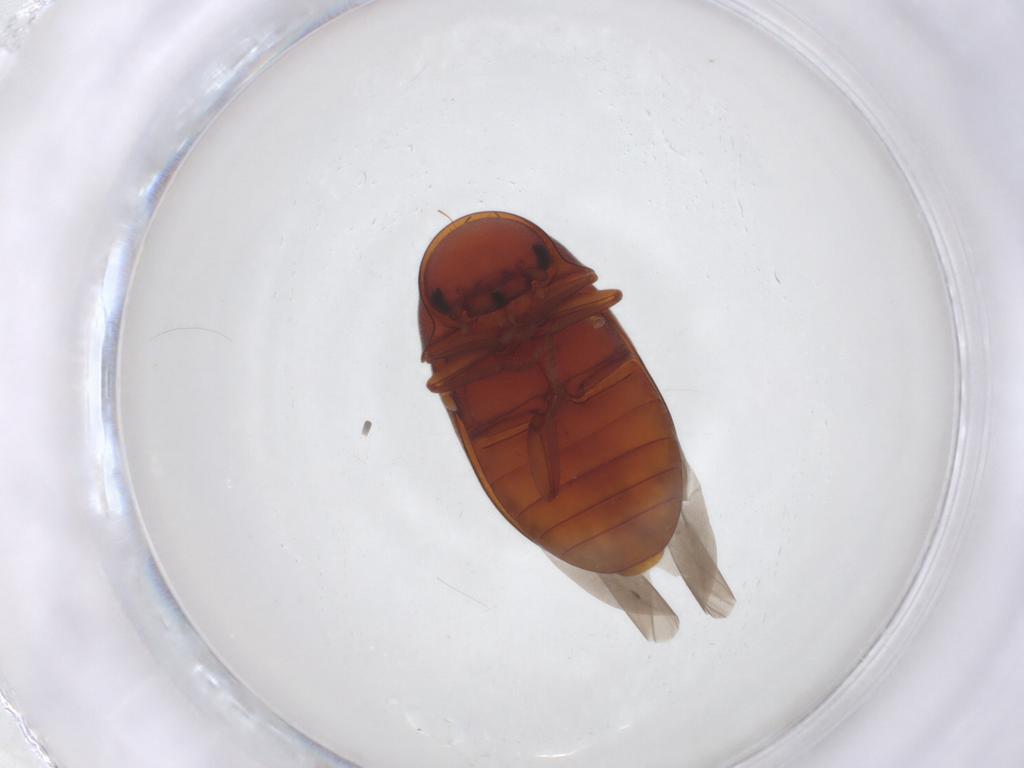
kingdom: Animalia
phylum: Arthropoda
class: Insecta
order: Coleoptera
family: Ptinidae
